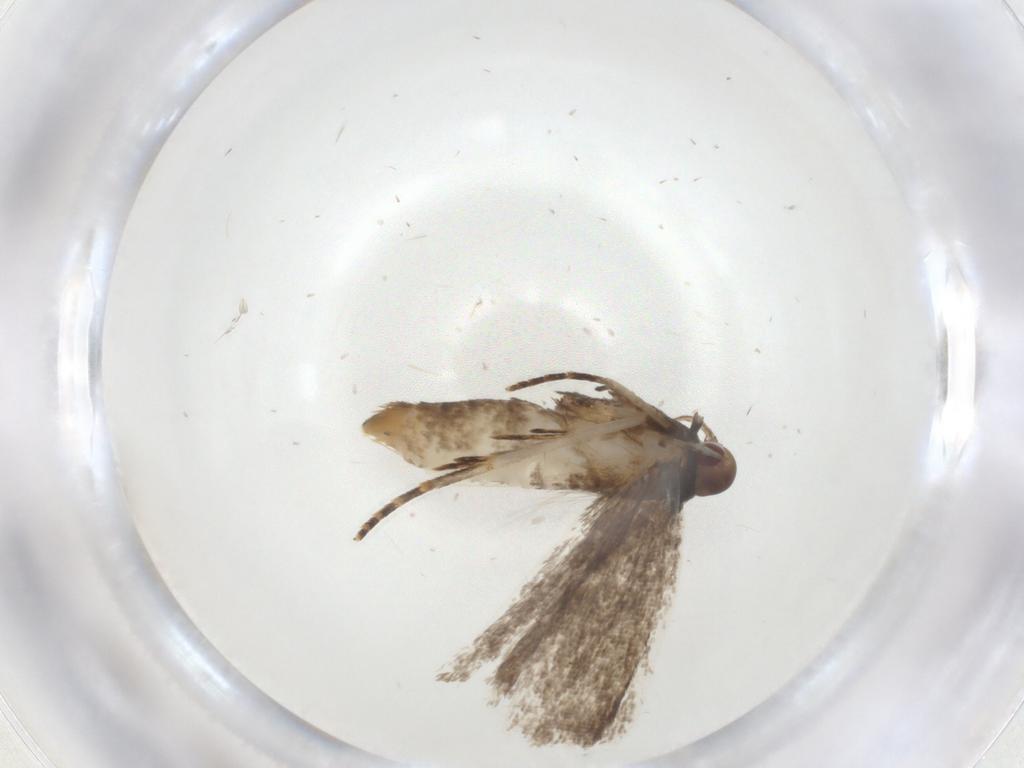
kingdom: Animalia
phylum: Arthropoda
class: Insecta
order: Lepidoptera
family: Gelechiidae
